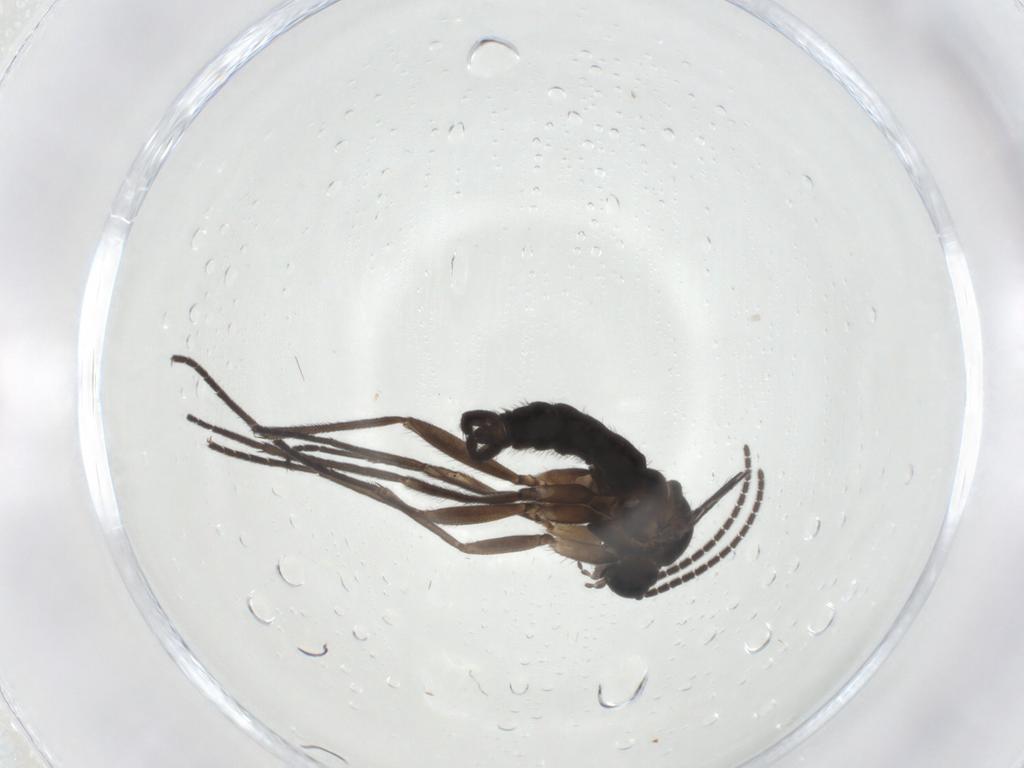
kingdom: Animalia
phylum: Arthropoda
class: Insecta
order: Diptera
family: Sciaridae
